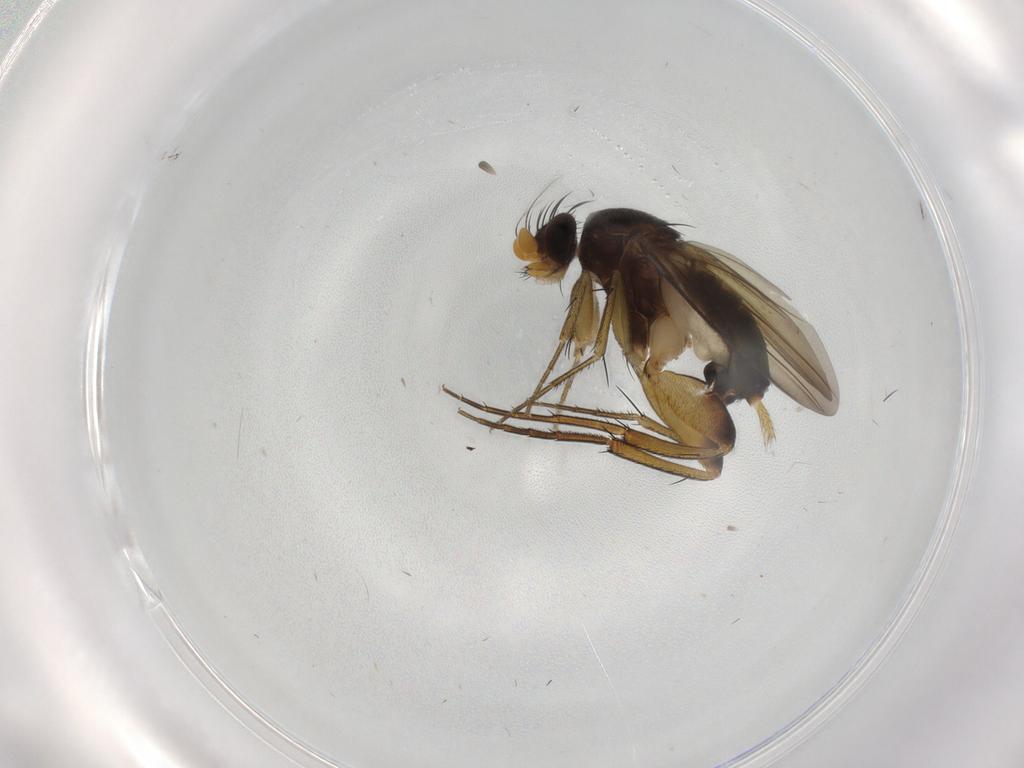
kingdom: Animalia
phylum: Arthropoda
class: Insecta
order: Diptera
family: Phoridae
